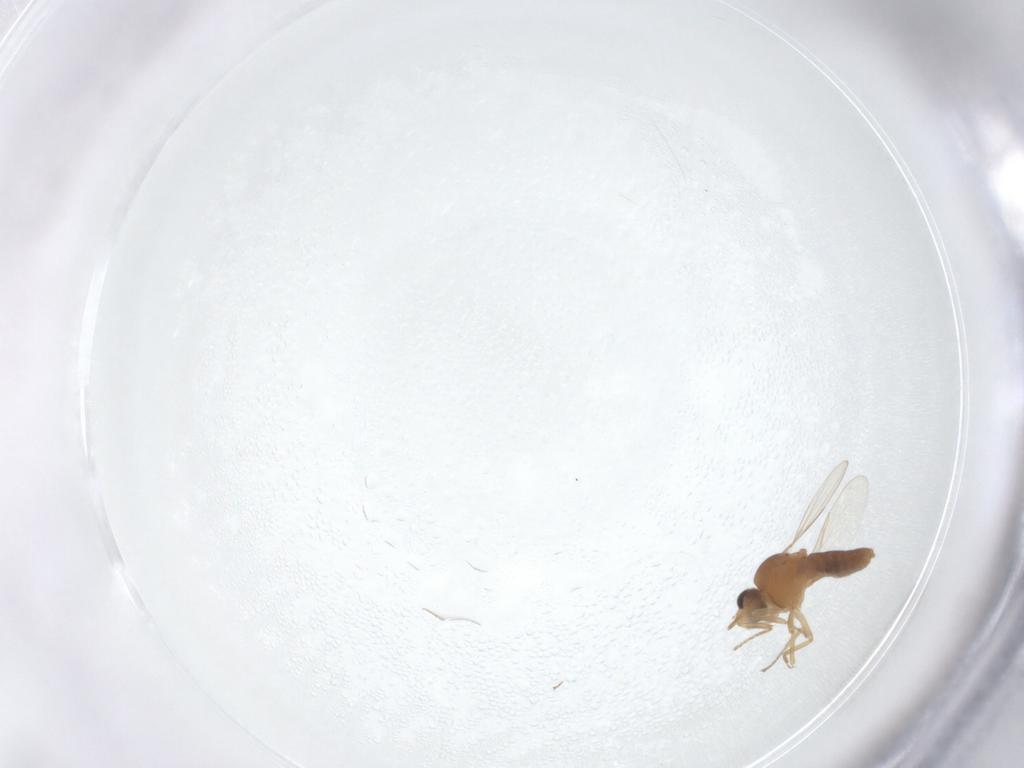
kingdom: Animalia
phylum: Arthropoda
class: Insecta
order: Diptera
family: Ceratopogonidae
